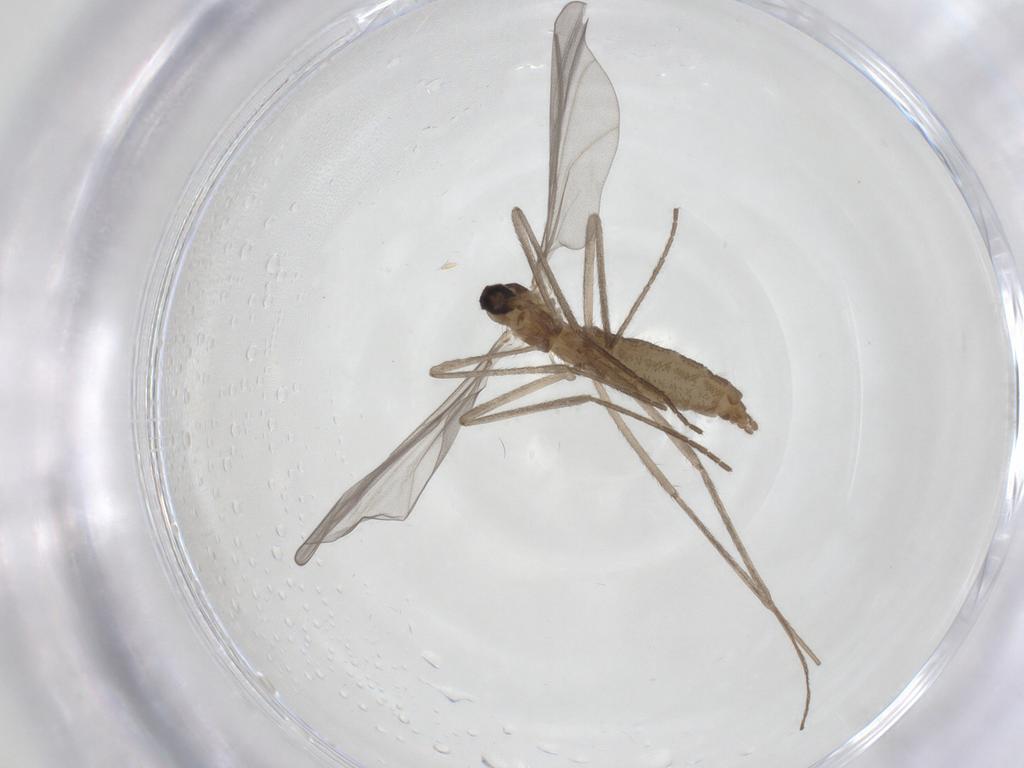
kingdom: Animalia
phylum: Arthropoda
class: Insecta
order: Diptera
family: Cecidomyiidae
